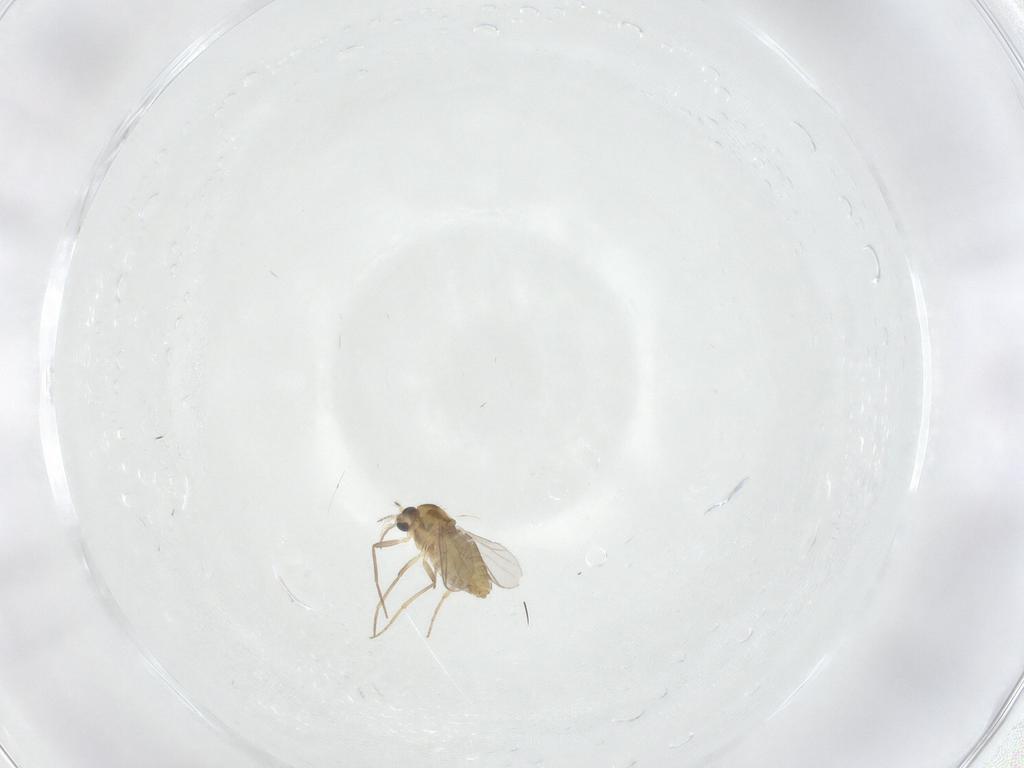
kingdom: Animalia
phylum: Arthropoda
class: Insecta
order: Diptera
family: Chironomidae
